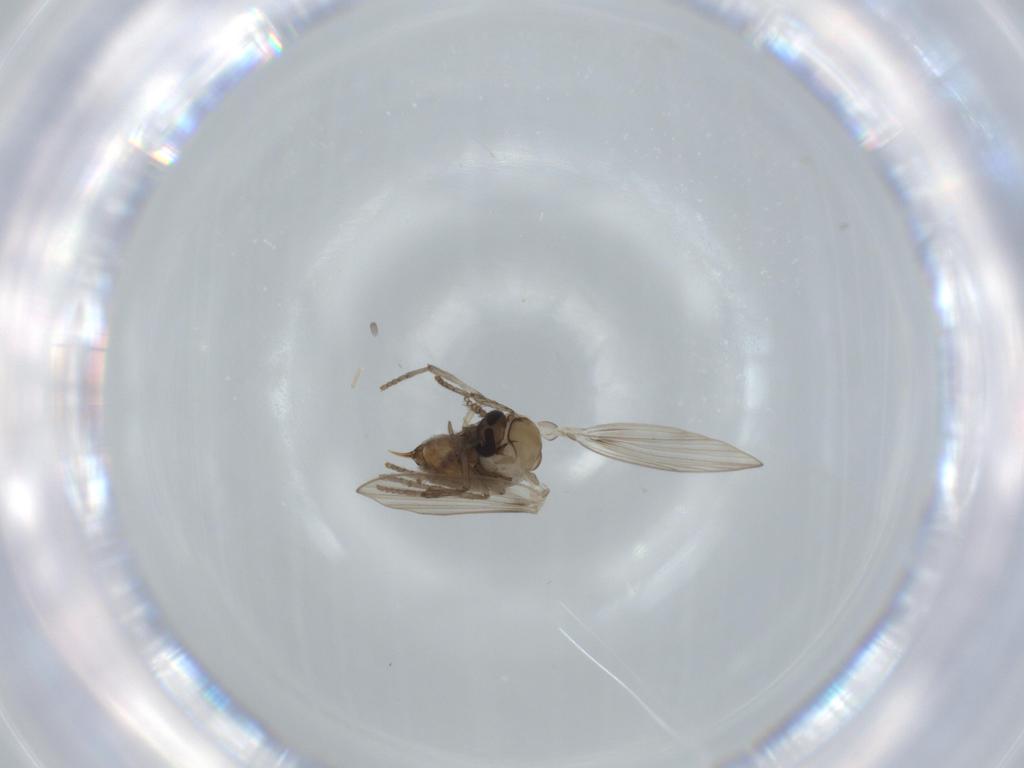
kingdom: Animalia
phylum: Arthropoda
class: Insecta
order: Diptera
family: Psychodidae
